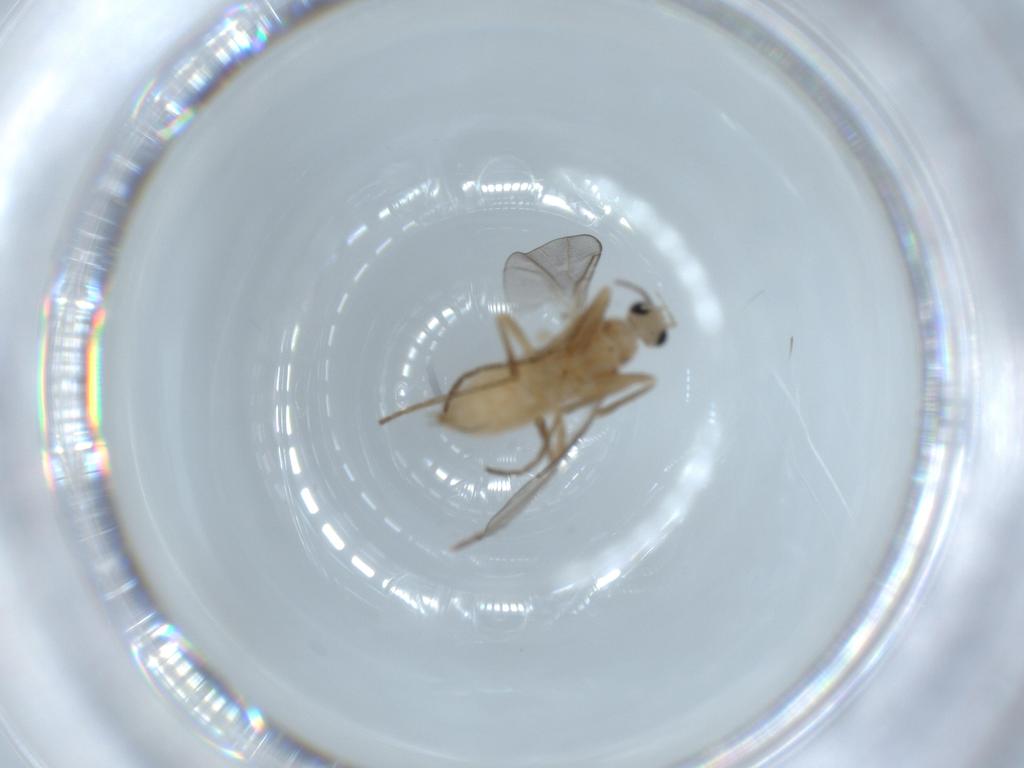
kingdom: Animalia
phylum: Arthropoda
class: Insecta
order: Diptera
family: Cecidomyiidae
